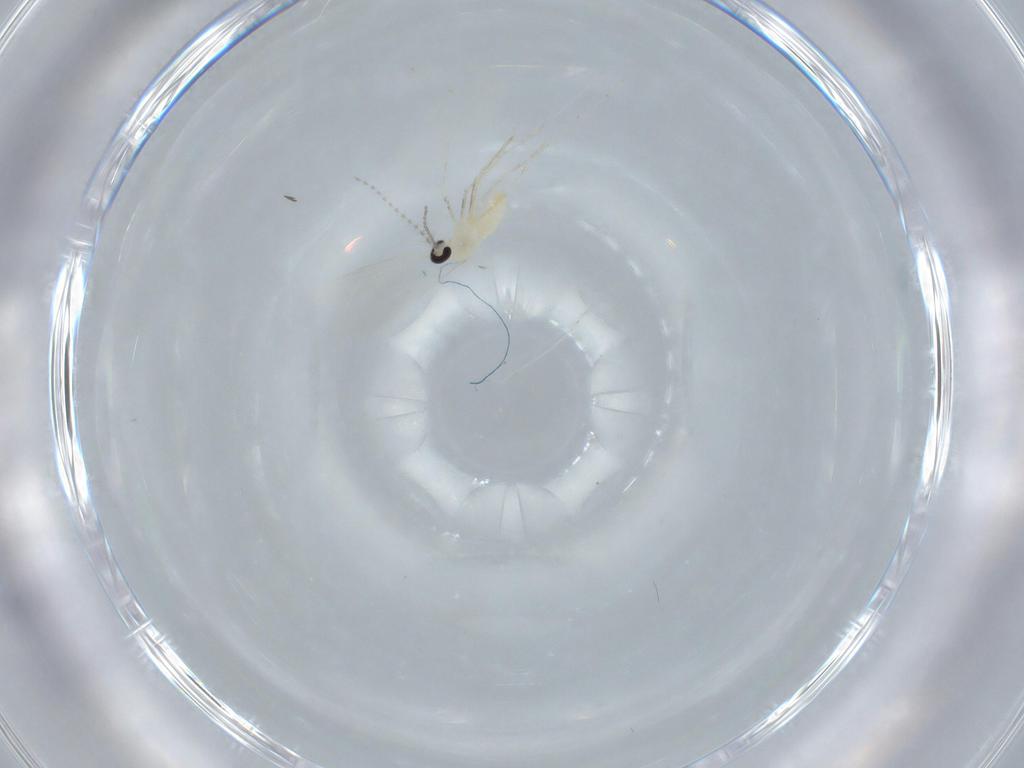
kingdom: Animalia
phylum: Arthropoda
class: Insecta
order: Diptera
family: Cecidomyiidae
